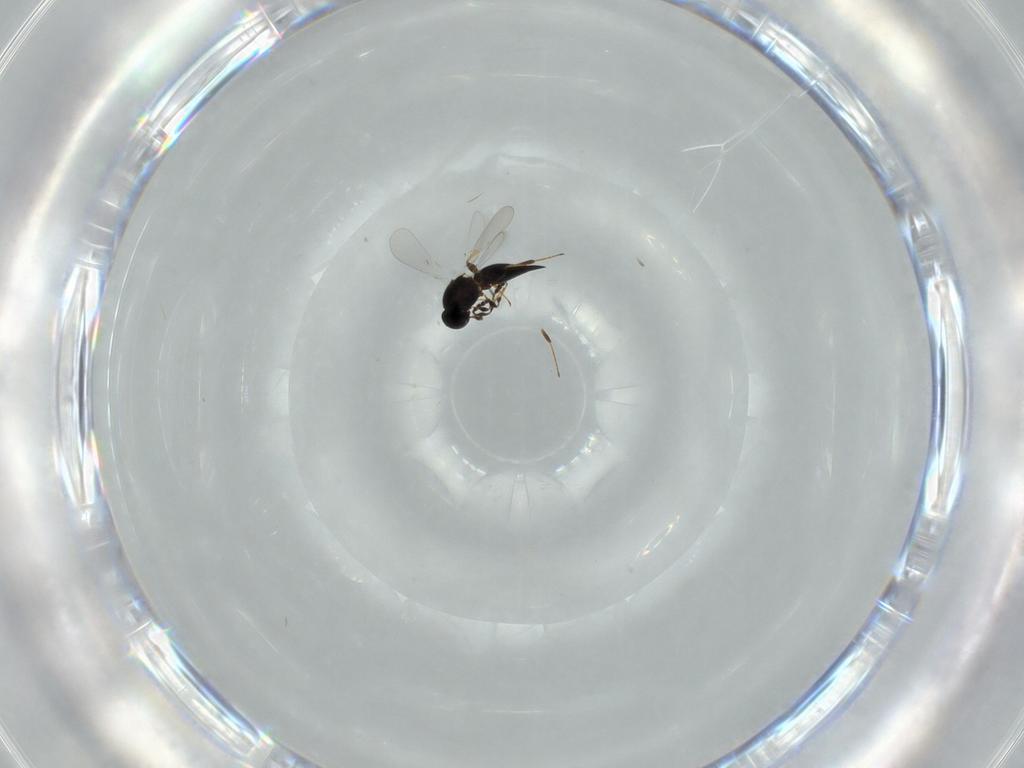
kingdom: Animalia
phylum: Arthropoda
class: Insecta
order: Hymenoptera
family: Platygastridae
